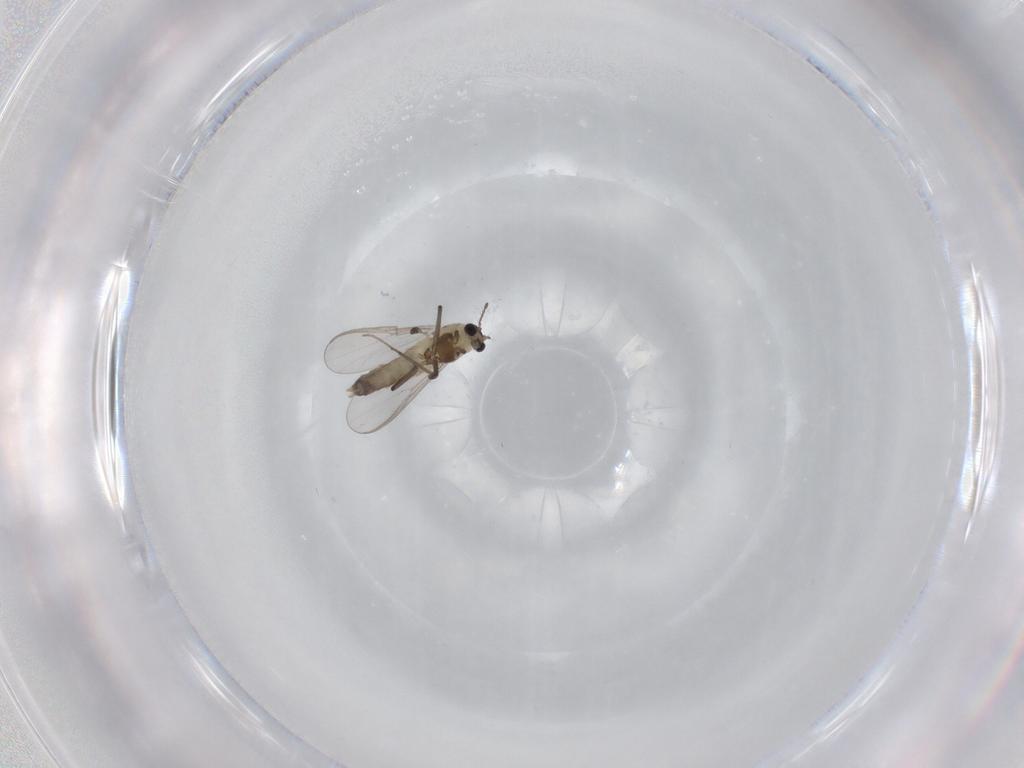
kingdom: Animalia
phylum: Arthropoda
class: Insecta
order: Diptera
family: Chironomidae
